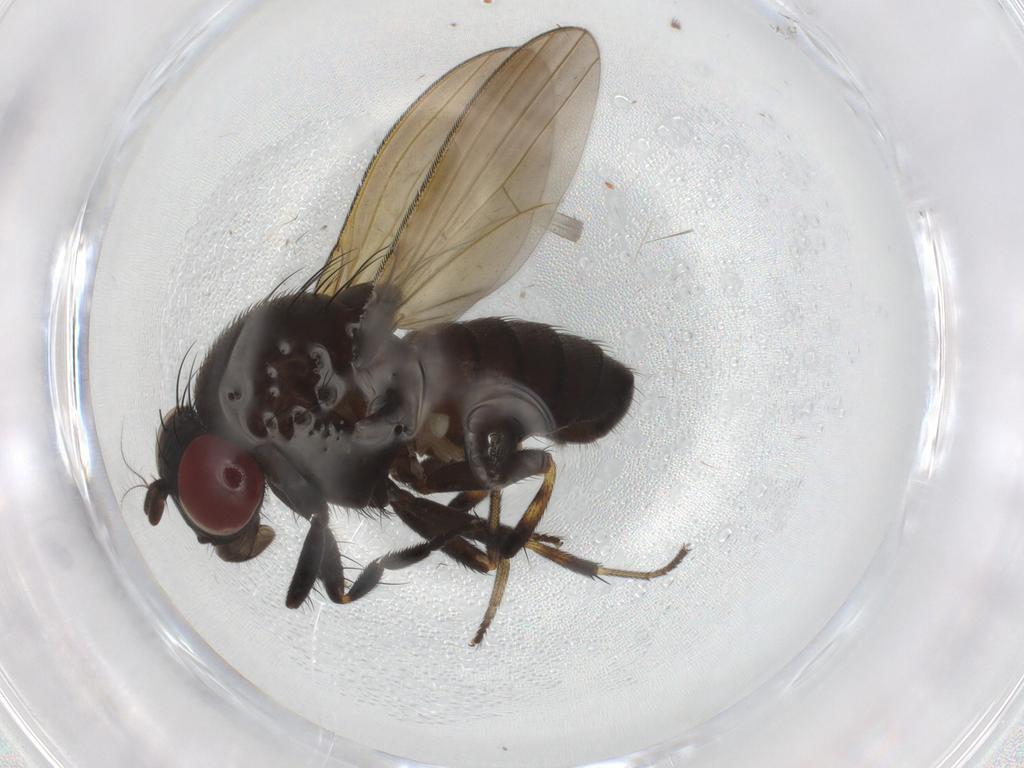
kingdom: Animalia
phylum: Arthropoda
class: Insecta
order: Diptera
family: Lauxaniidae
